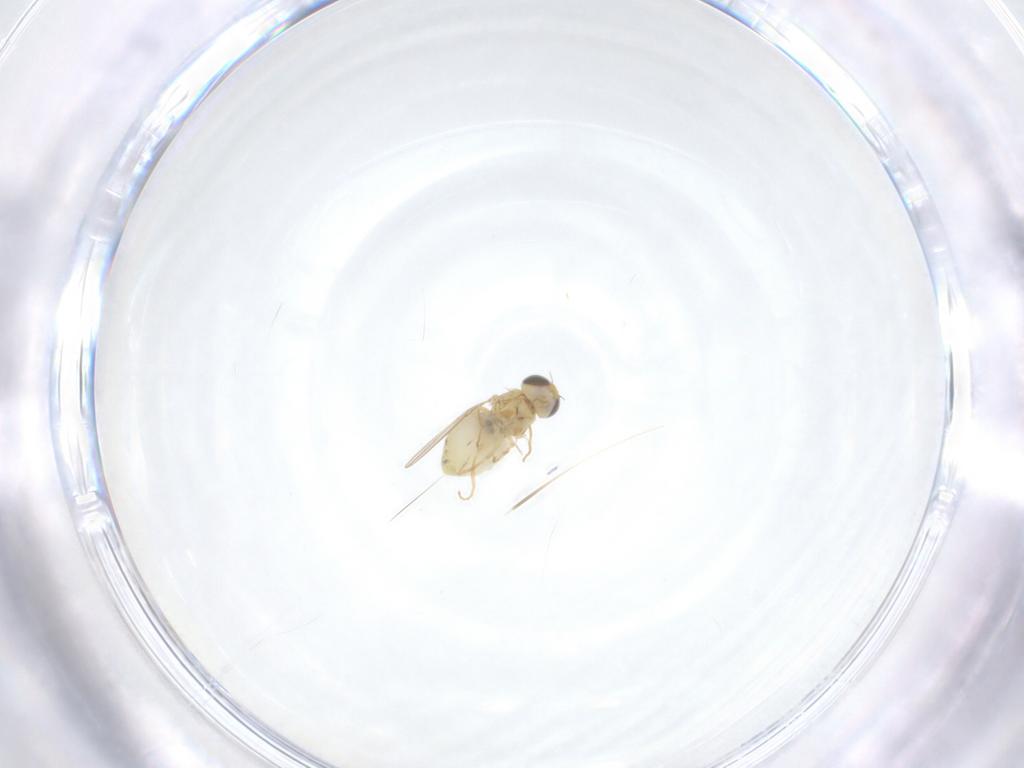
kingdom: Animalia
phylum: Arthropoda
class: Insecta
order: Diptera
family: Chyromyidae
